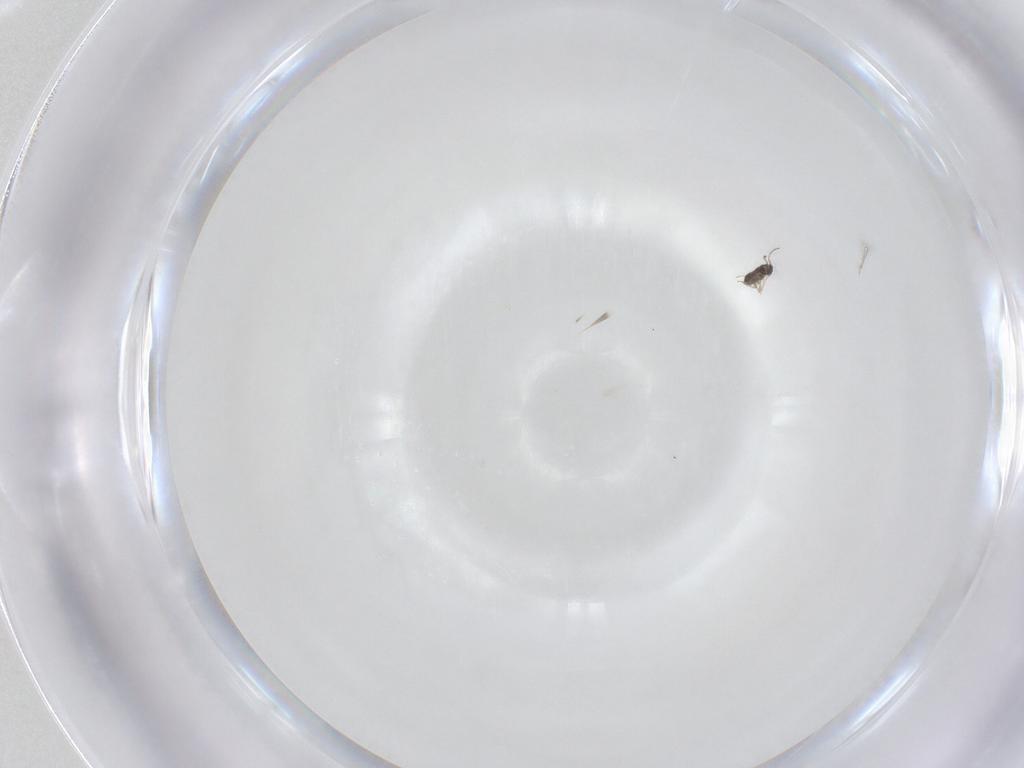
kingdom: Animalia
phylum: Arthropoda
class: Insecta
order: Hymenoptera
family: Mymaridae
